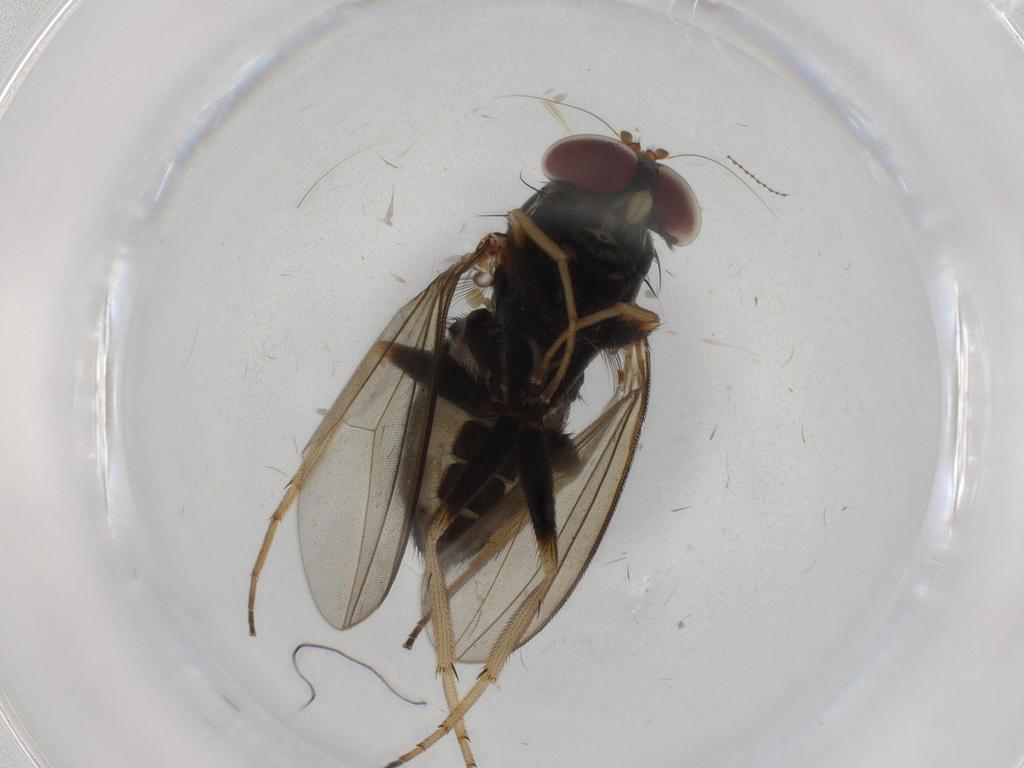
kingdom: Animalia
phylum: Arthropoda
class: Insecta
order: Diptera
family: Dolichopodidae
